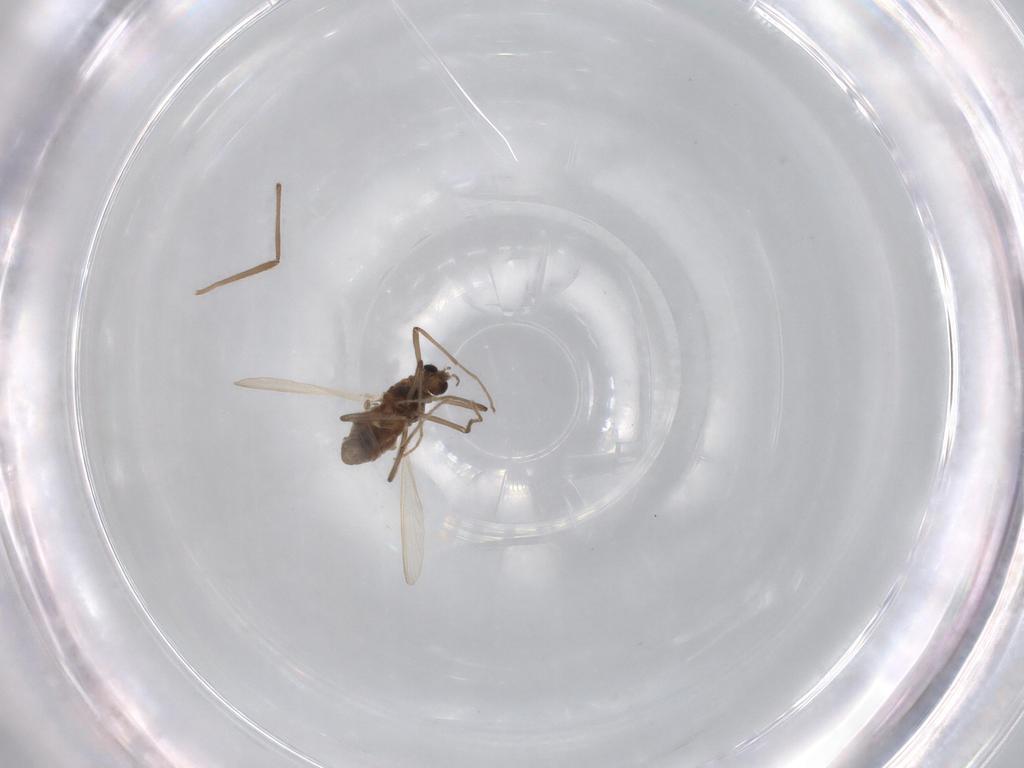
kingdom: Animalia
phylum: Arthropoda
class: Insecta
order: Diptera
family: Chironomidae
